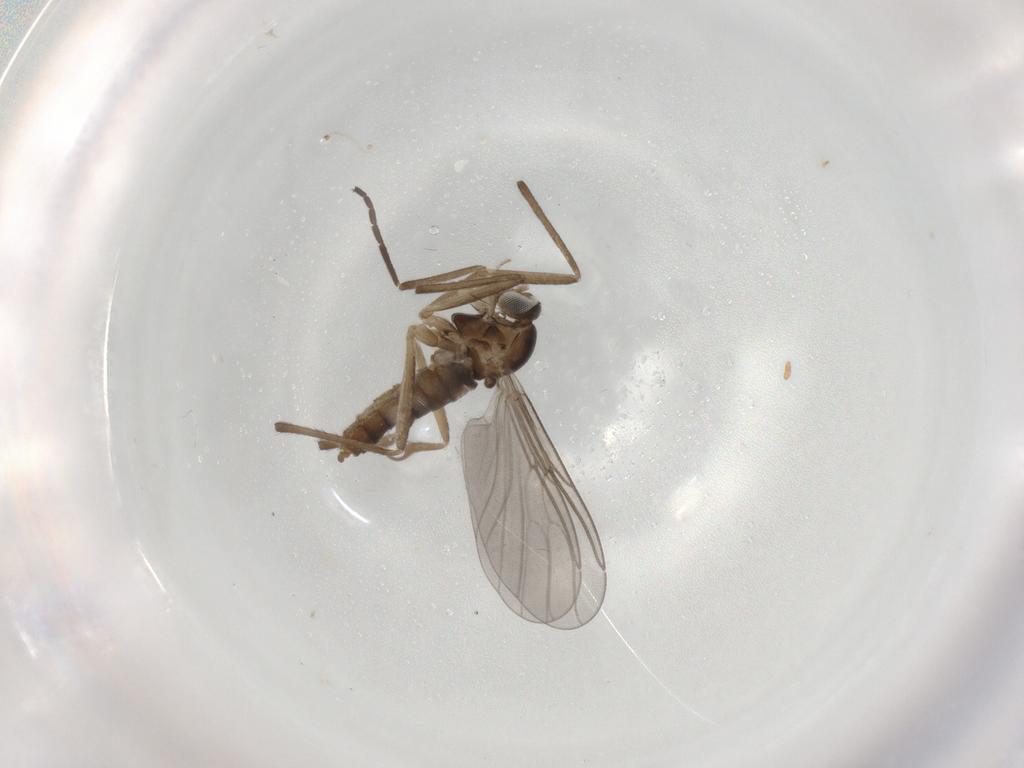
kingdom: Animalia
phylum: Arthropoda
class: Insecta
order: Diptera
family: Cecidomyiidae
